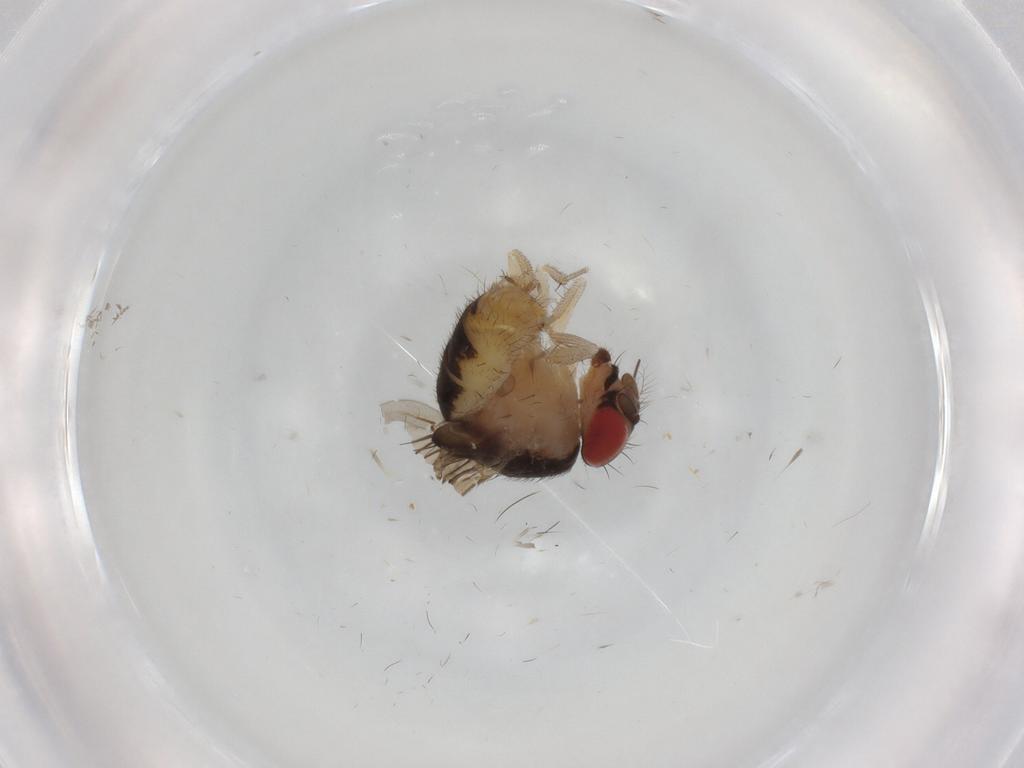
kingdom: Animalia
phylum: Arthropoda
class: Insecta
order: Diptera
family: Drosophilidae
